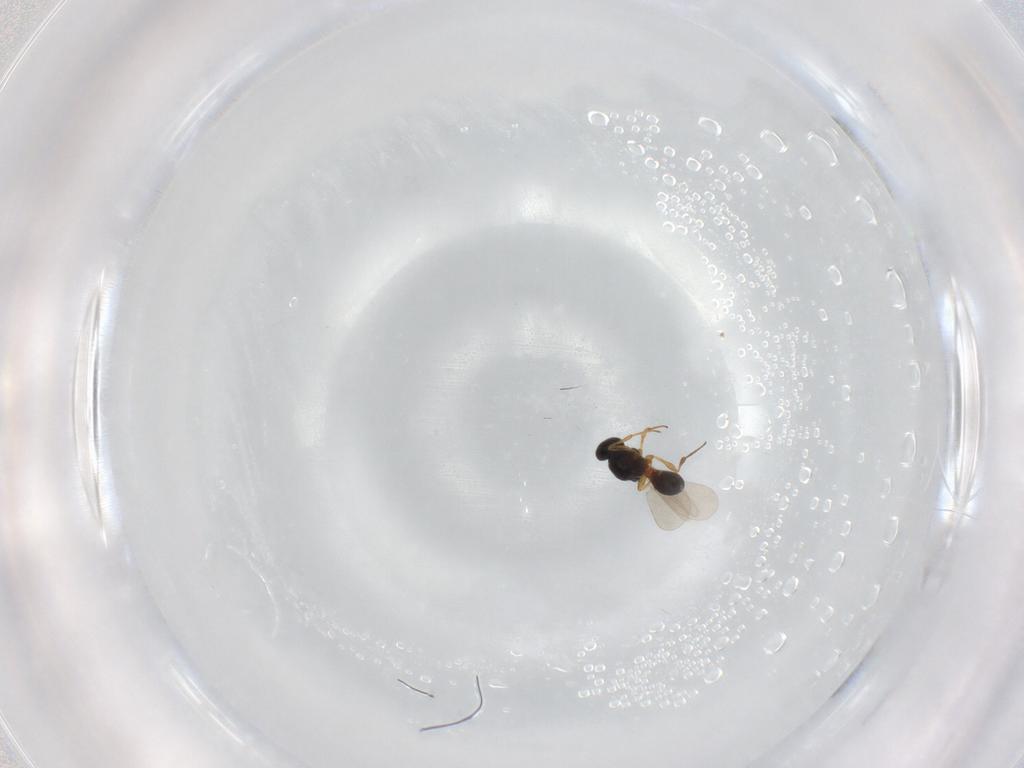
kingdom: Animalia
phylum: Arthropoda
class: Insecta
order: Hymenoptera
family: Platygastridae
